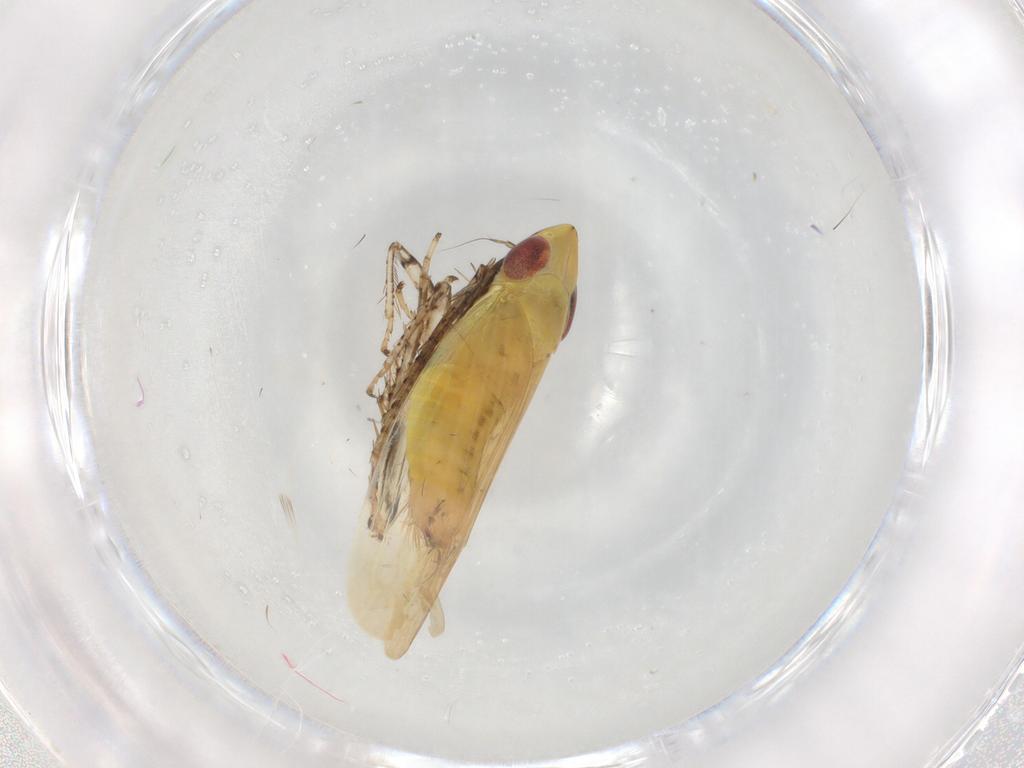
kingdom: Animalia
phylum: Arthropoda
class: Insecta
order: Hemiptera
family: Cicadellidae
